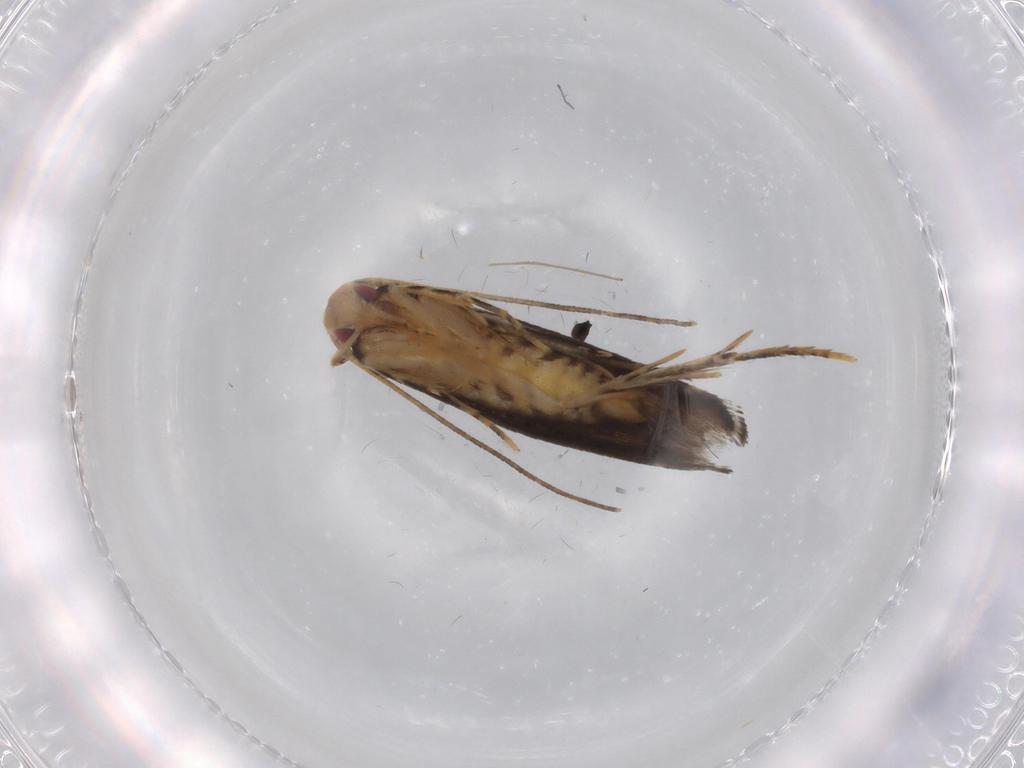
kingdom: Animalia
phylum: Arthropoda
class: Insecta
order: Lepidoptera
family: Momphidae
